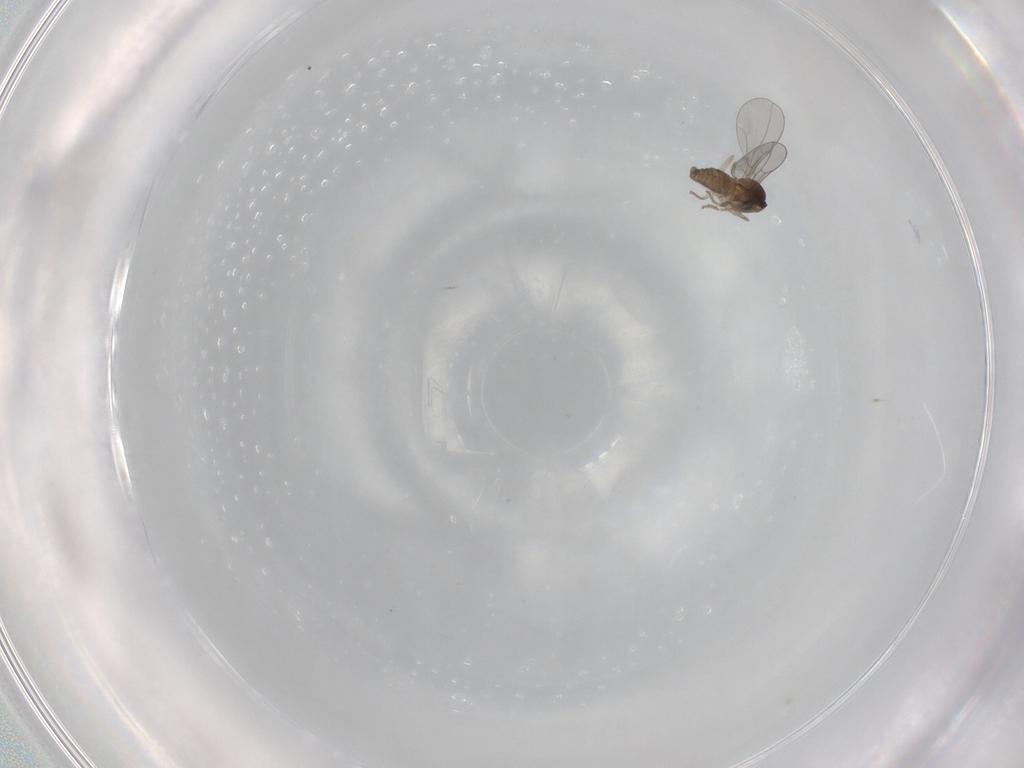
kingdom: Animalia
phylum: Arthropoda
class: Insecta
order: Diptera
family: Chironomidae
